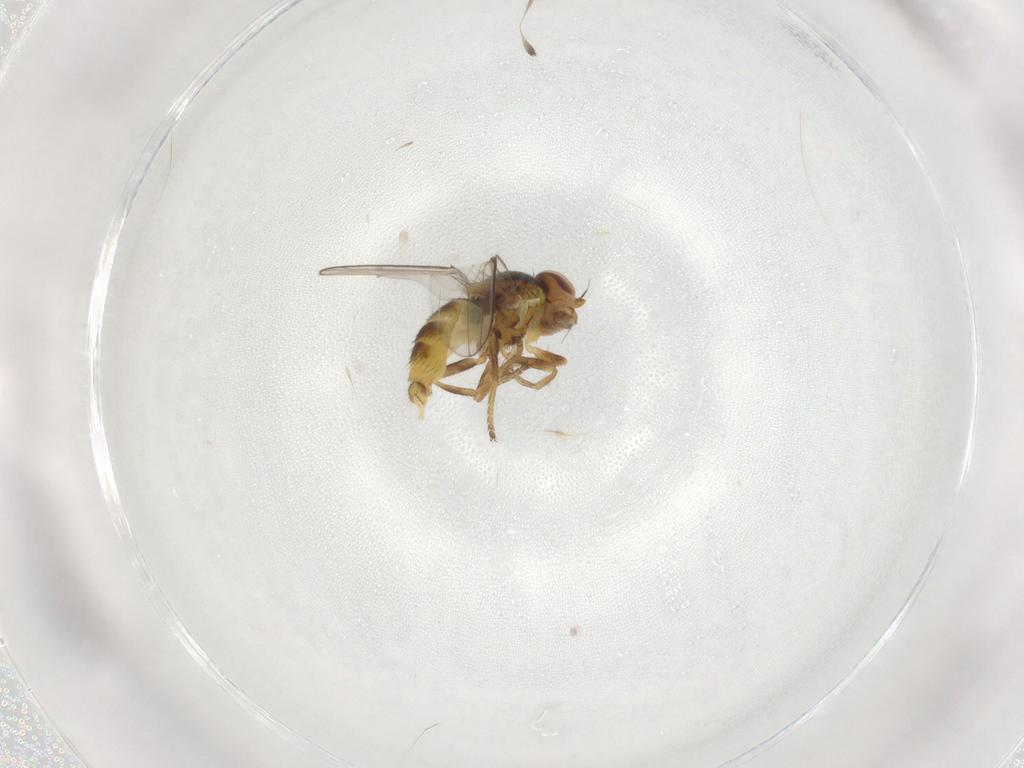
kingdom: Animalia
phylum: Arthropoda
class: Insecta
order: Diptera
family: Chloropidae
